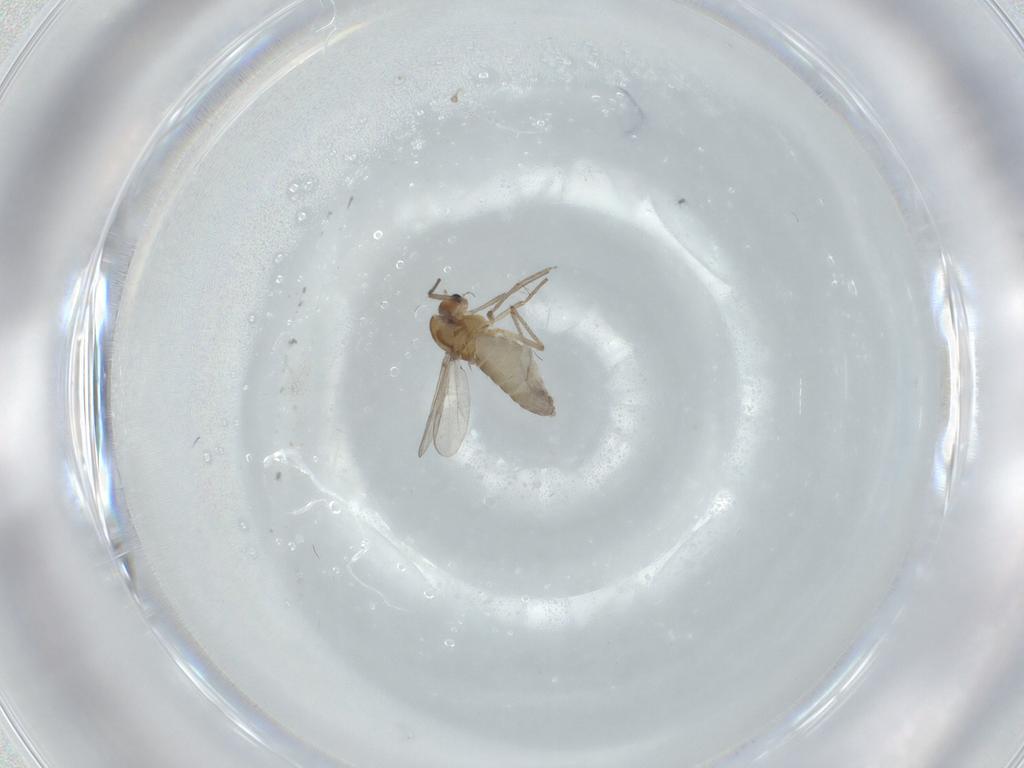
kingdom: Animalia
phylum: Arthropoda
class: Insecta
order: Diptera
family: Chironomidae
